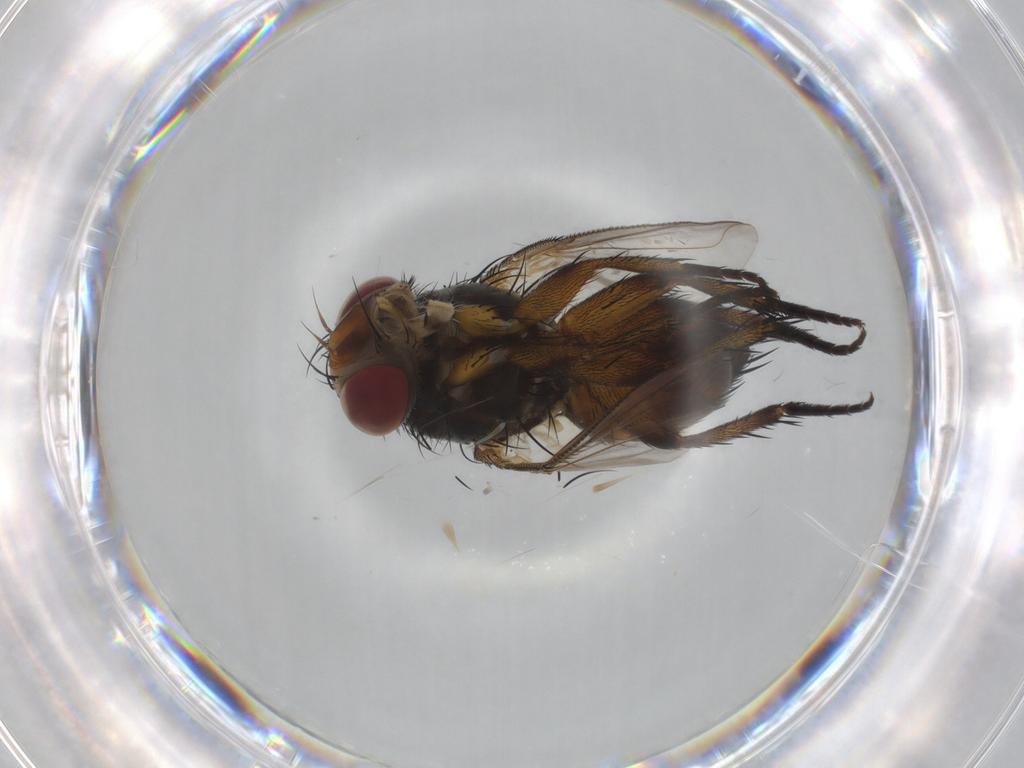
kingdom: Animalia
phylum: Arthropoda
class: Insecta
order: Diptera
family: Tachinidae
